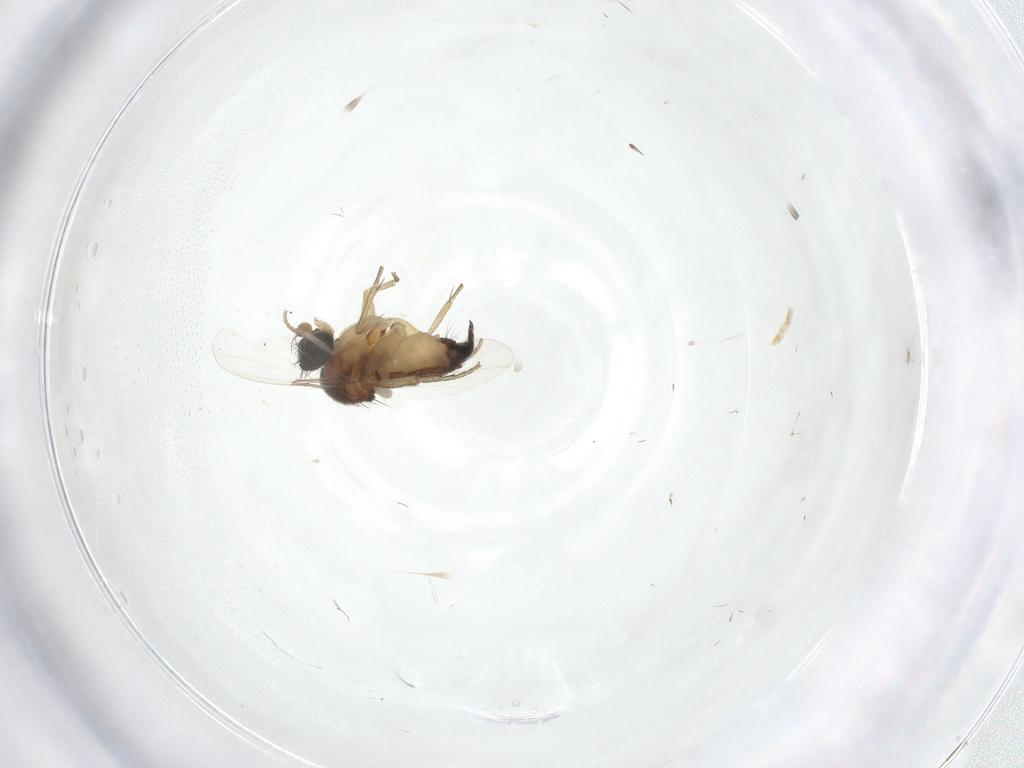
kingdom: Animalia
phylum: Arthropoda
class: Insecta
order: Diptera
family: Phoridae
